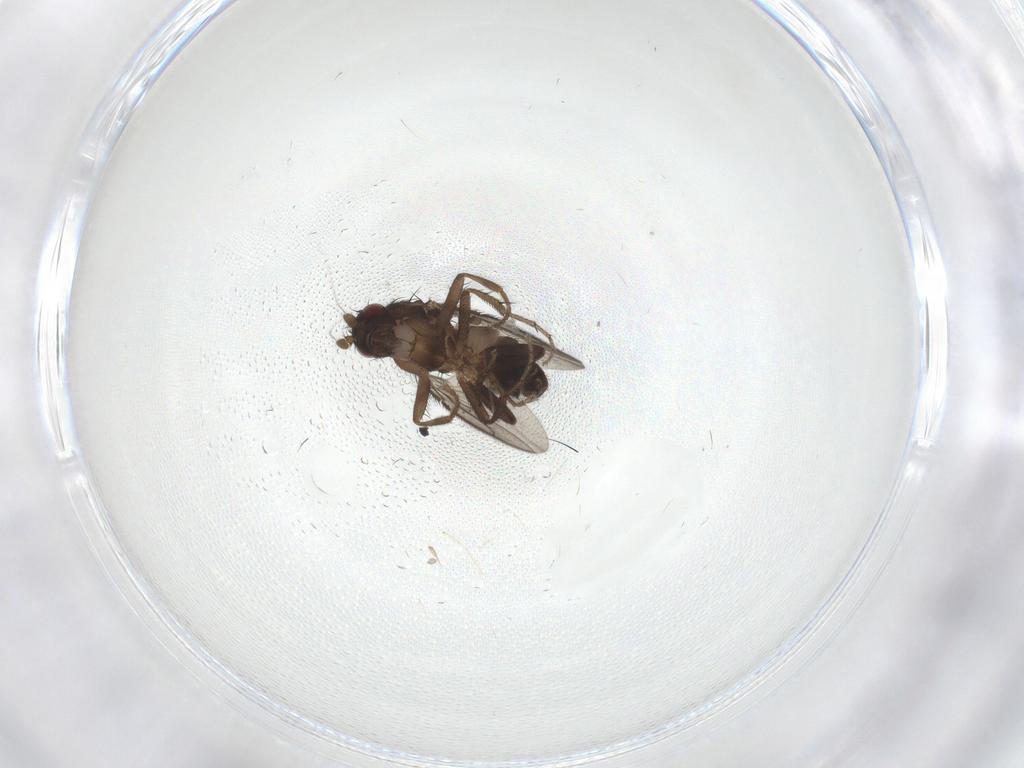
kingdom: Animalia
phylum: Arthropoda
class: Insecta
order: Diptera
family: Sphaeroceridae
